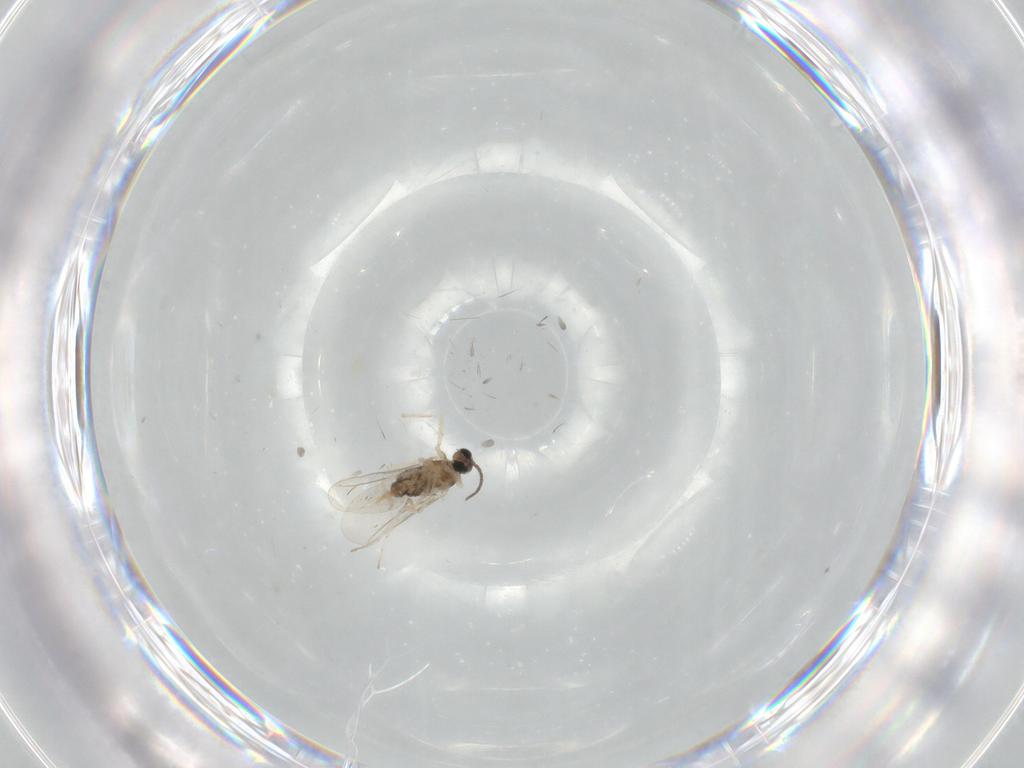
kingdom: Animalia
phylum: Arthropoda
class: Insecta
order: Diptera
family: Cecidomyiidae
